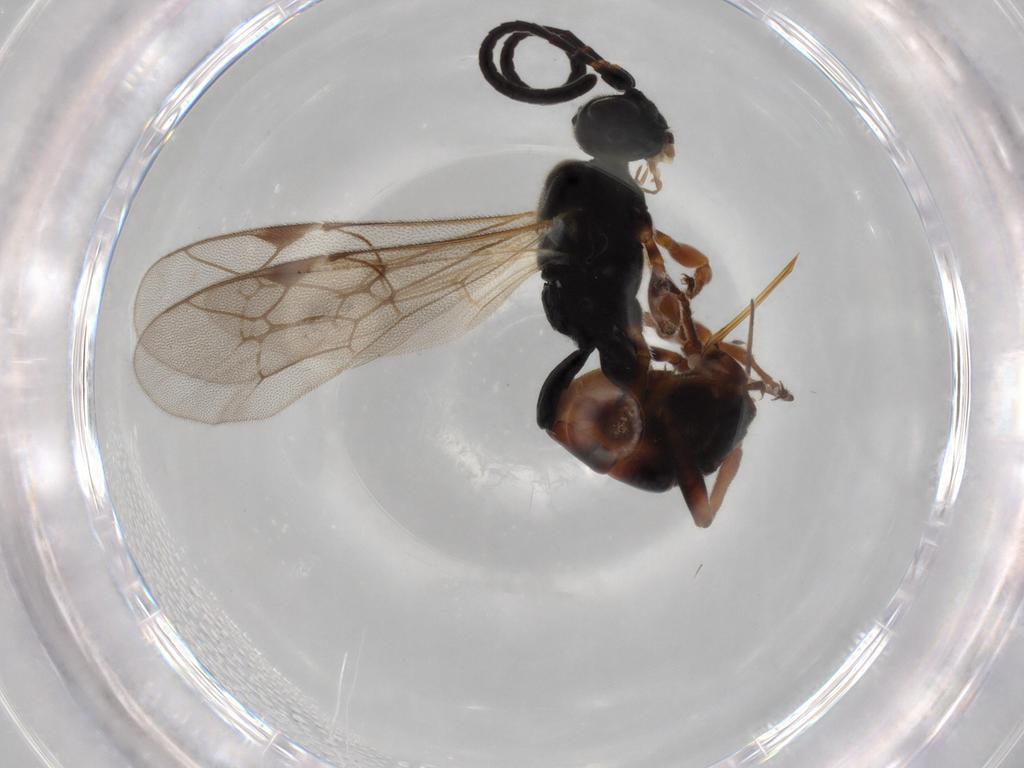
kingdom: Animalia
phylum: Arthropoda
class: Insecta
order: Hymenoptera
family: Ichneumonidae
